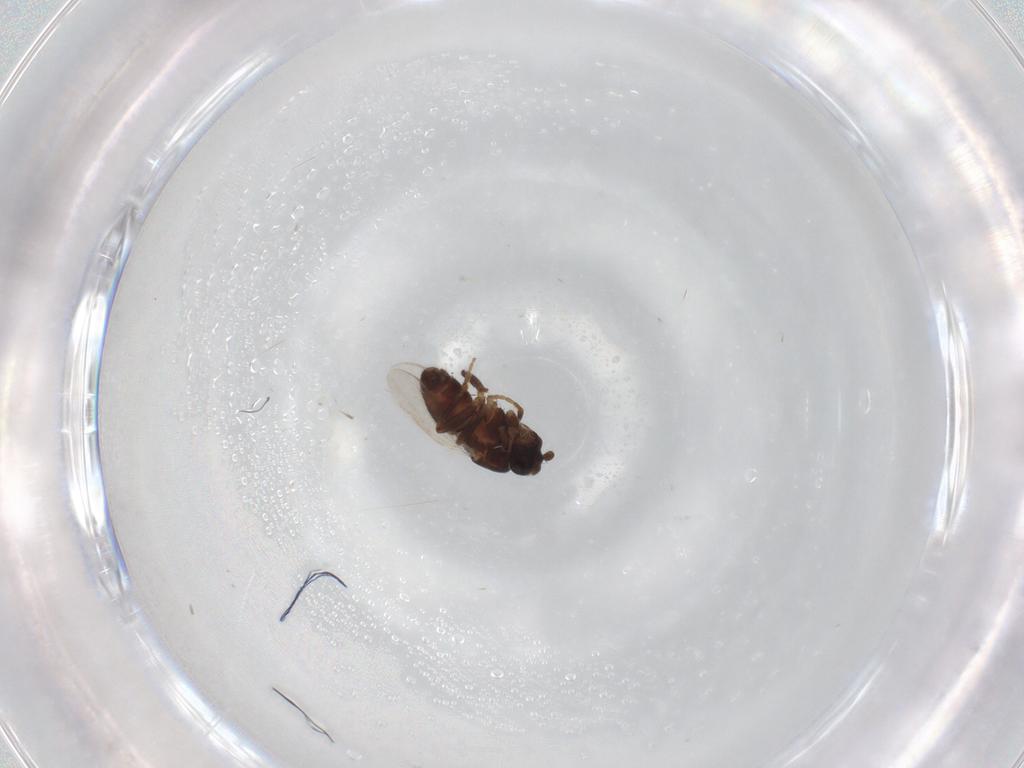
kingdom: Animalia
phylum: Arthropoda
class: Insecta
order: Diptera
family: Sphaeroceridae
